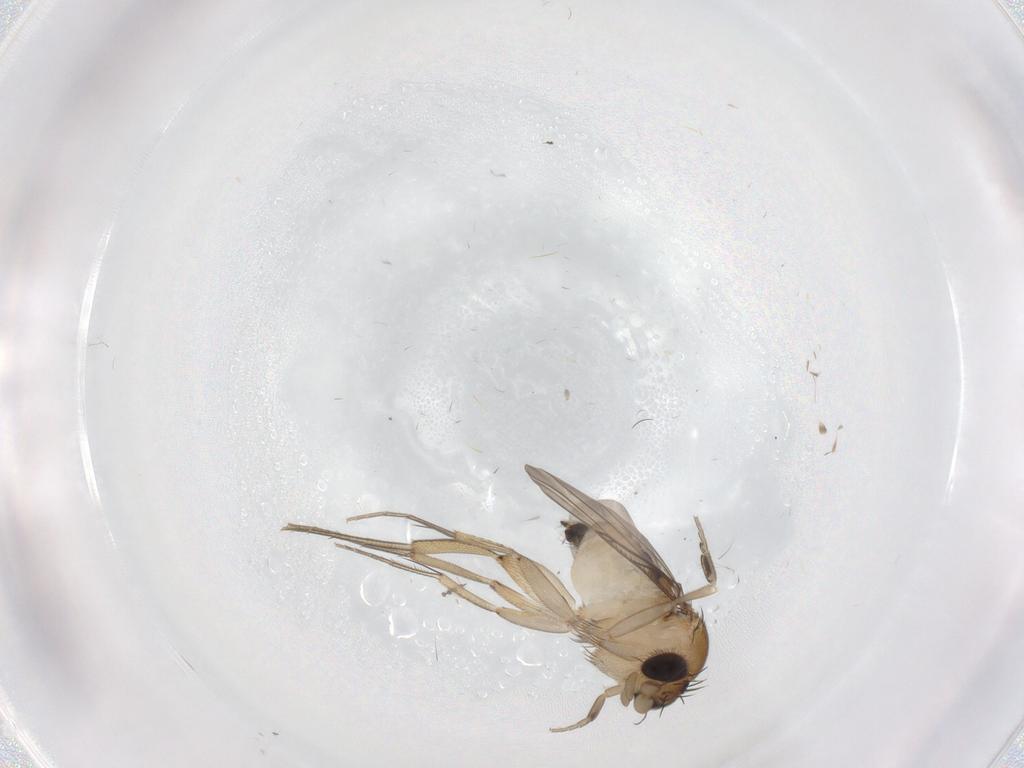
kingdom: Animalia
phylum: Arthropoda
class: Insecta
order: Diptera
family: Phoridae
